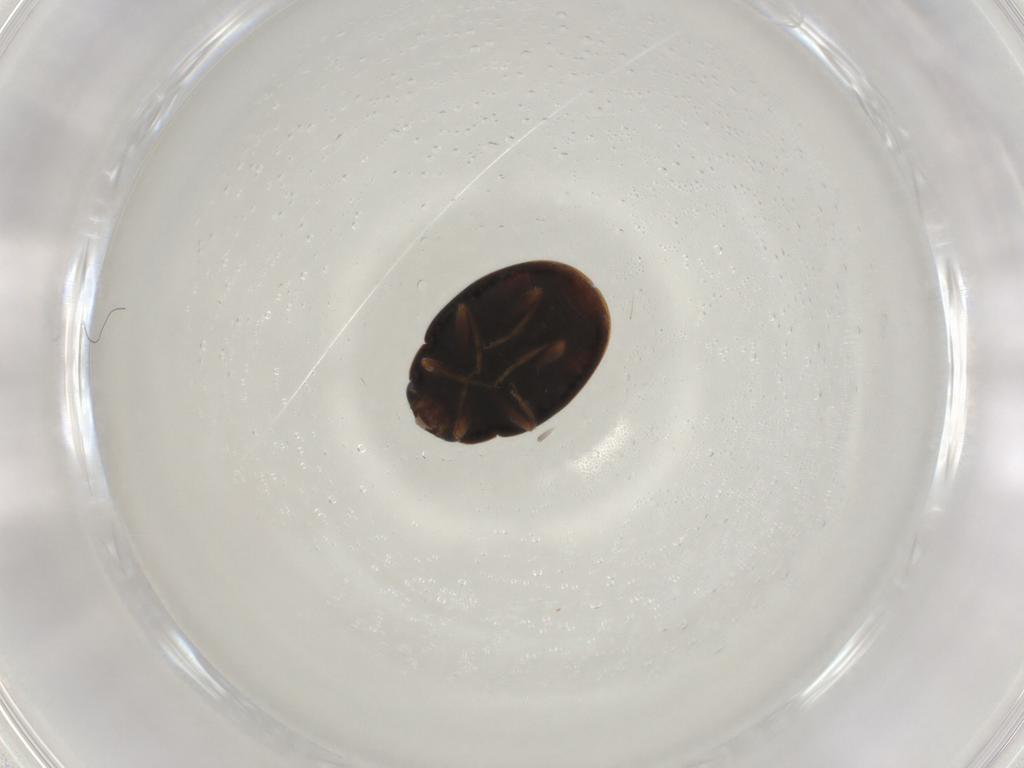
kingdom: Animalia
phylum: Arthropoda
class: Insecta
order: Coleoptera
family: Coccinellidae
